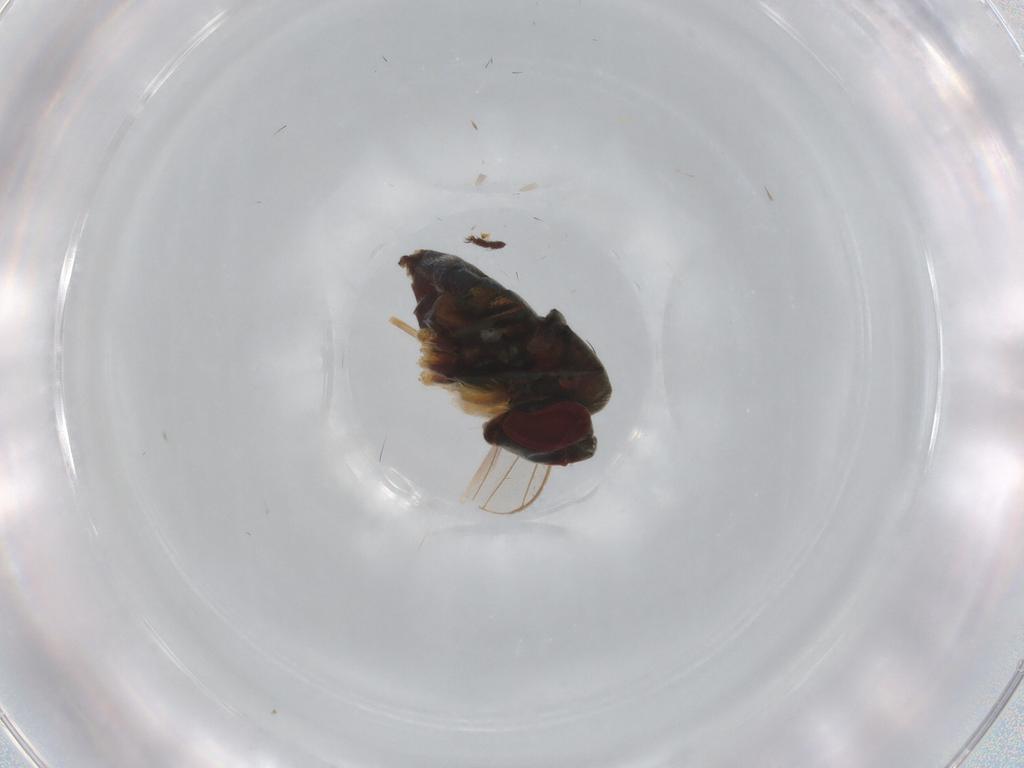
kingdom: Animalia
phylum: Arthropoda
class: Insecta
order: Diptera
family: Dolichopodidae
